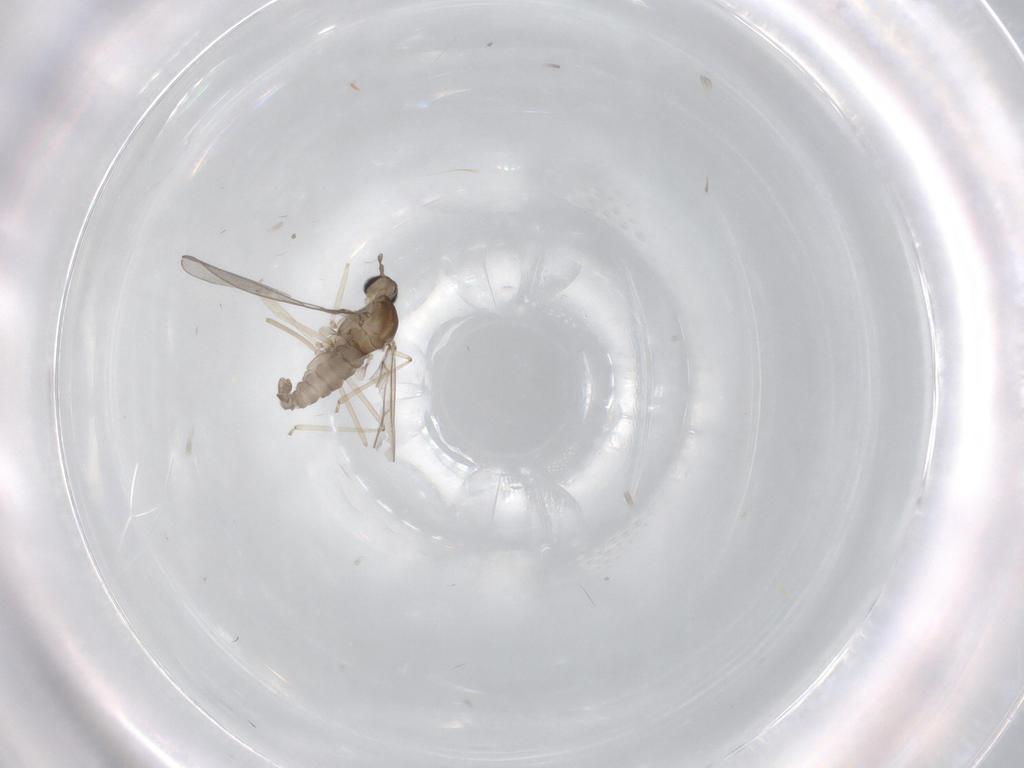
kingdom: Animalia
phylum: Arthropoda
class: Insecta
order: Diptera
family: Cecidomyiidae
